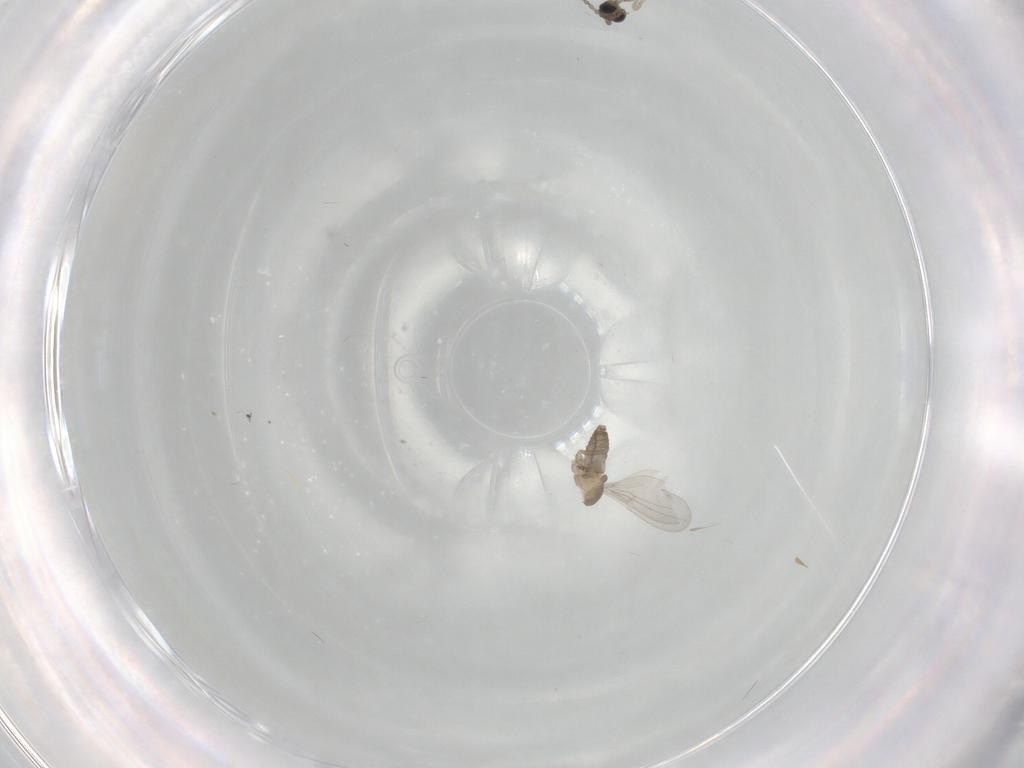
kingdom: Animalia
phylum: Arthropoda
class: Insecta
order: Diptera
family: Cecidomyiidae
